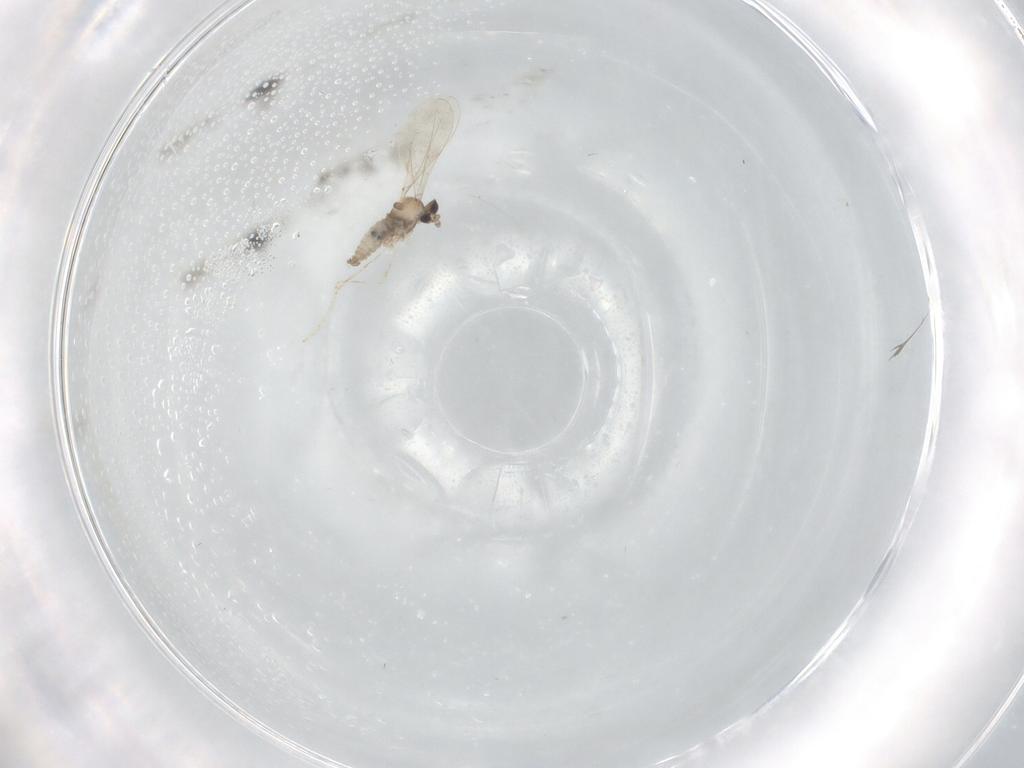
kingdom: Animalia
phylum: Arthropoda
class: Insecta
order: Diptera
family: Cecidomyiidae
